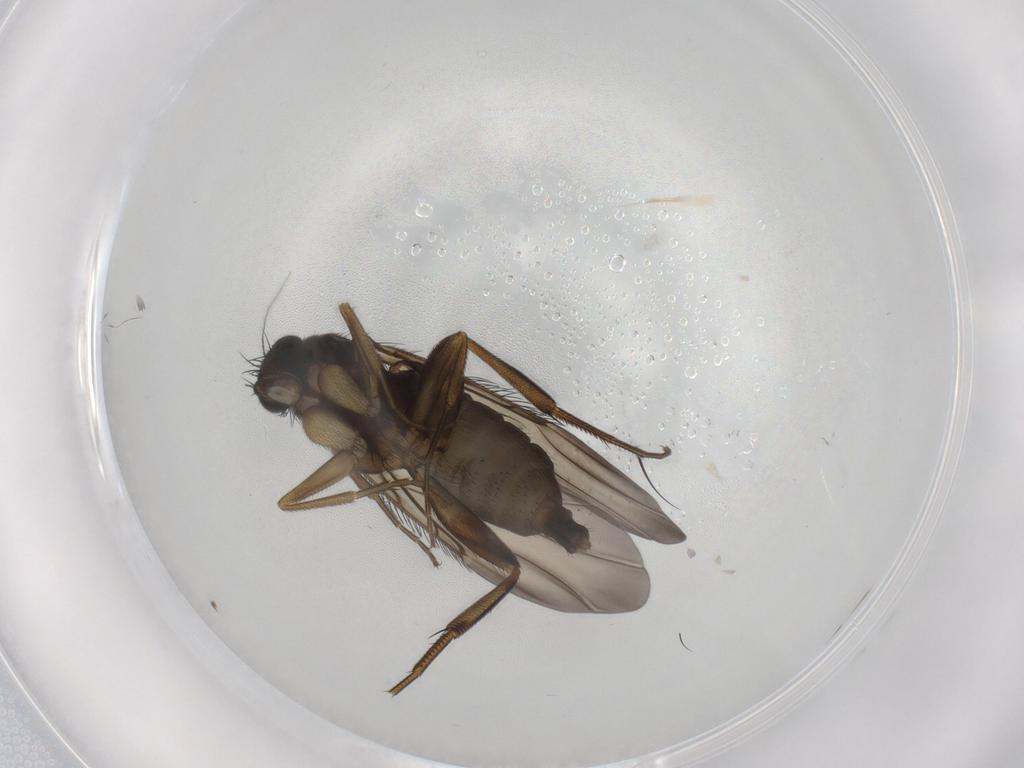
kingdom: Animalia
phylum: Arthropoda
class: Insecta
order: Diptera
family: Phoridae
